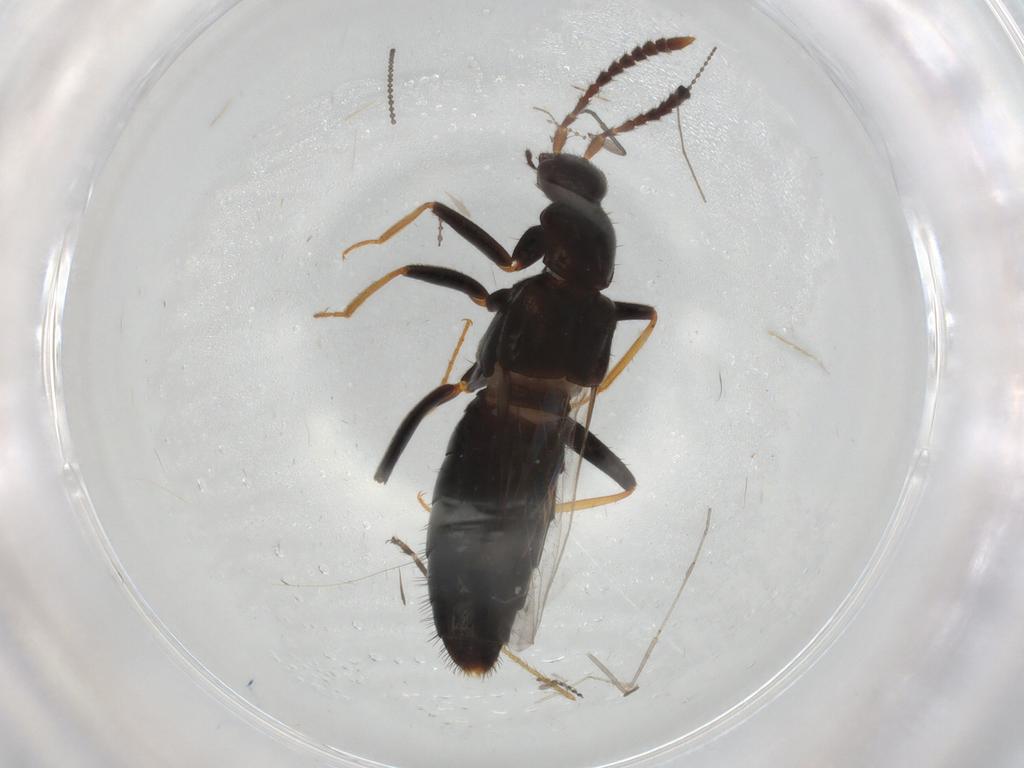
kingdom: Animalia
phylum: Arthropoda
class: Insecta
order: Coleoptera
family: Staphylinidae
